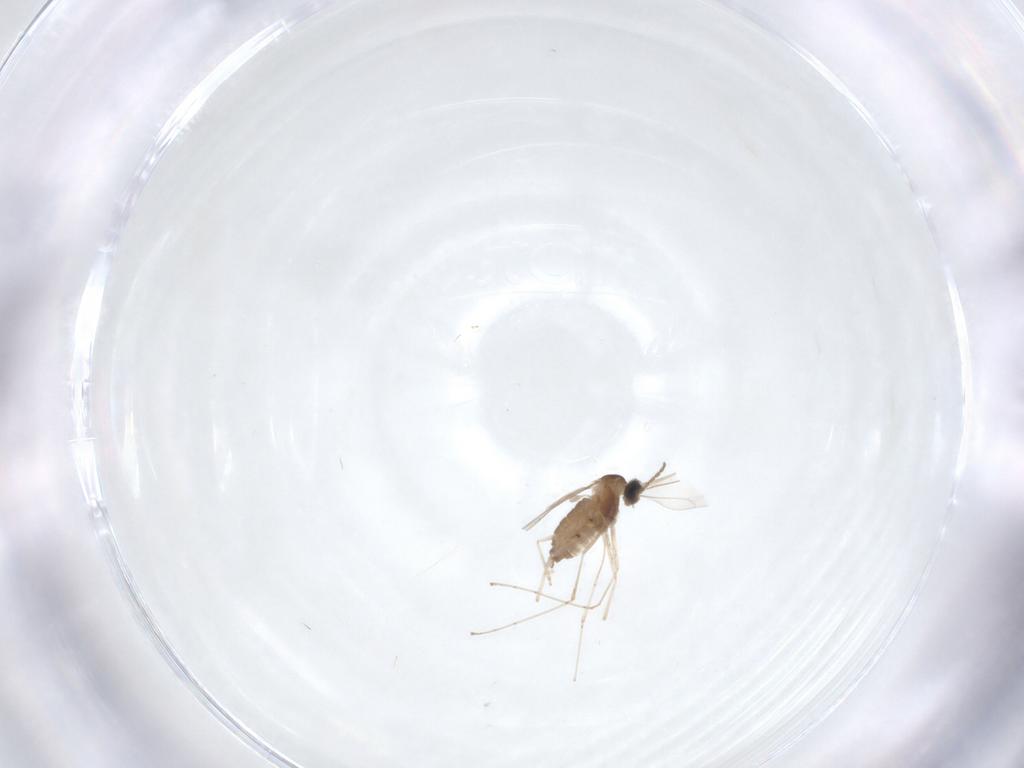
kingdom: Animalia
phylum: Arthropoda
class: Insecta
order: Diptera
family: Cecidomyiidae
